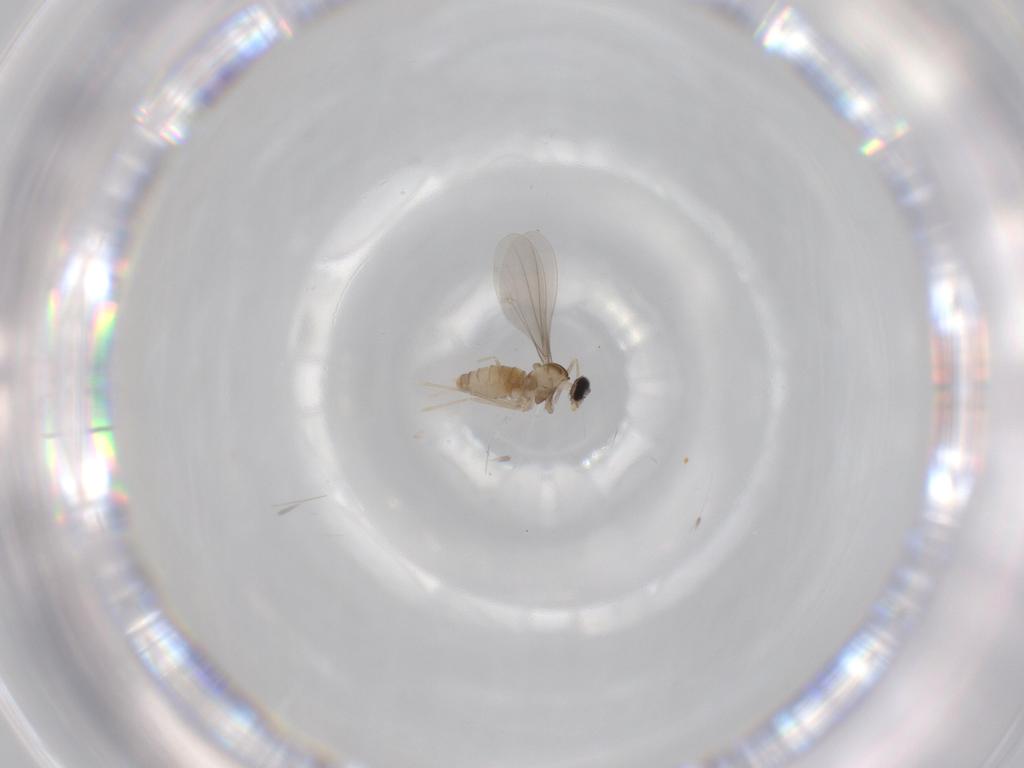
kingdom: Animalia
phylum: Arthropoda
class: Insecta
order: Diptera
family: Cecidomyiidae
